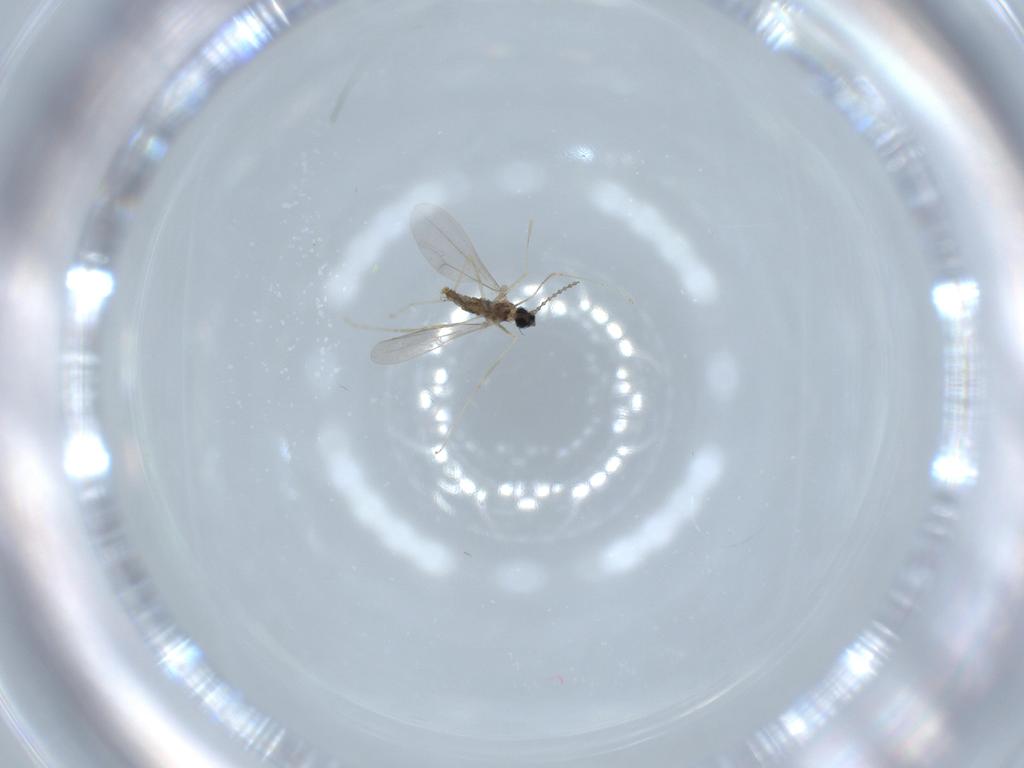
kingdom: Animalia
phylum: Arthropoda
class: Insecta
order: Diptera
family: Cecidomyiidae
